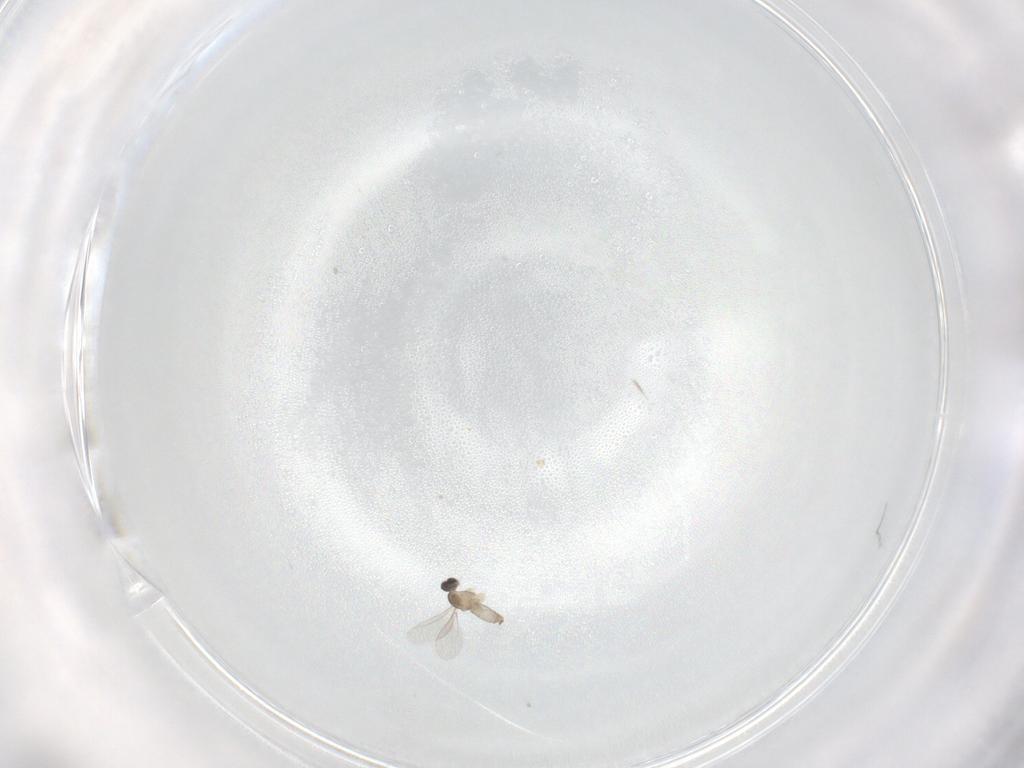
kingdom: Animalia
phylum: Arthropoda
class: Insecta
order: Diptera
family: Cecidomyiidae
